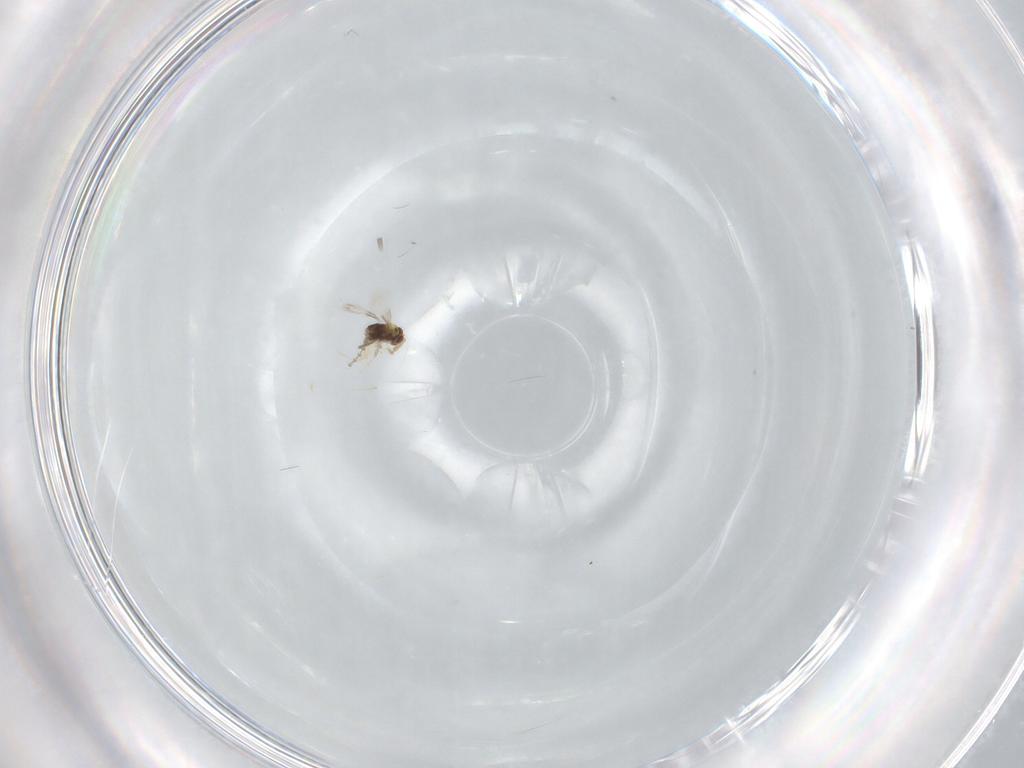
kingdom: Animalia
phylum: Arthropoda
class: Insecta
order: Hymenoptera
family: Aphelinidae
